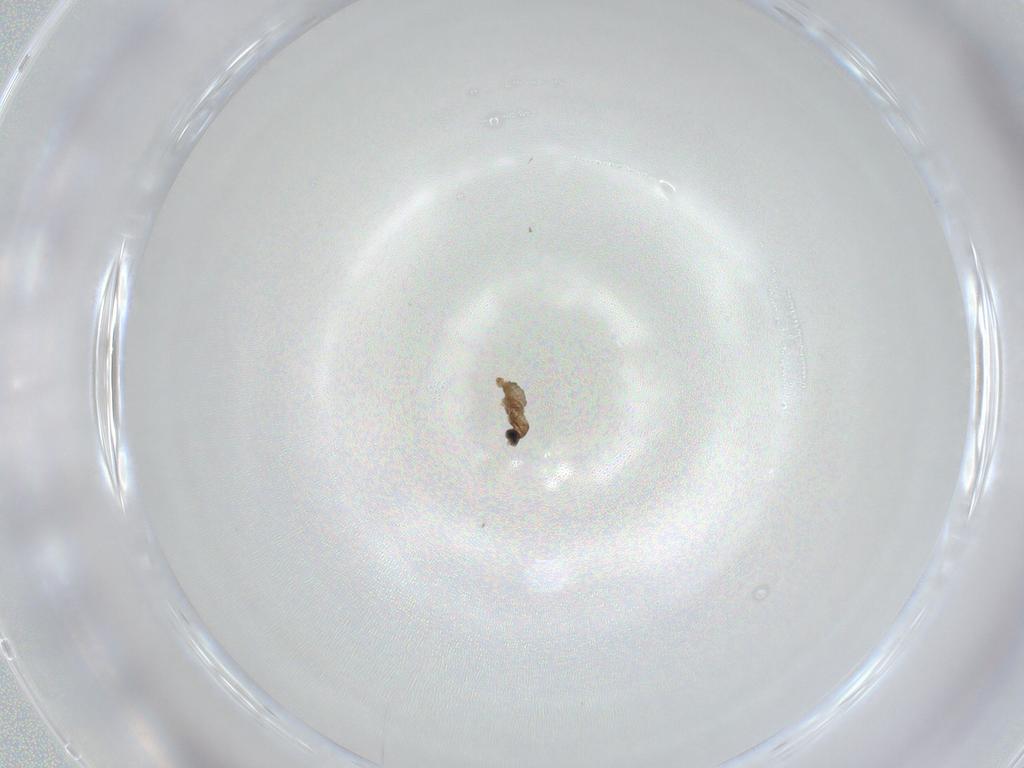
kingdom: Animalia
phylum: Arthropoda
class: Insecta
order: Diptera
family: Cecidomyiidae
